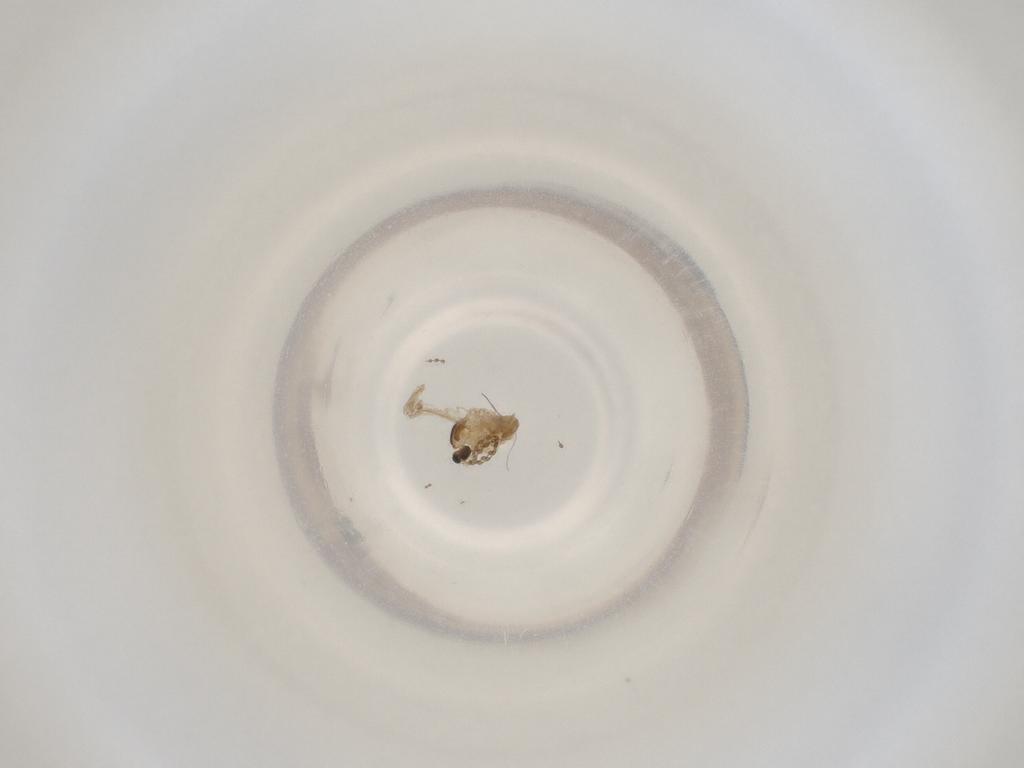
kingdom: Animalia
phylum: Arthropoda
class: Insecta
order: Diptera
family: Cecidomyiidae
